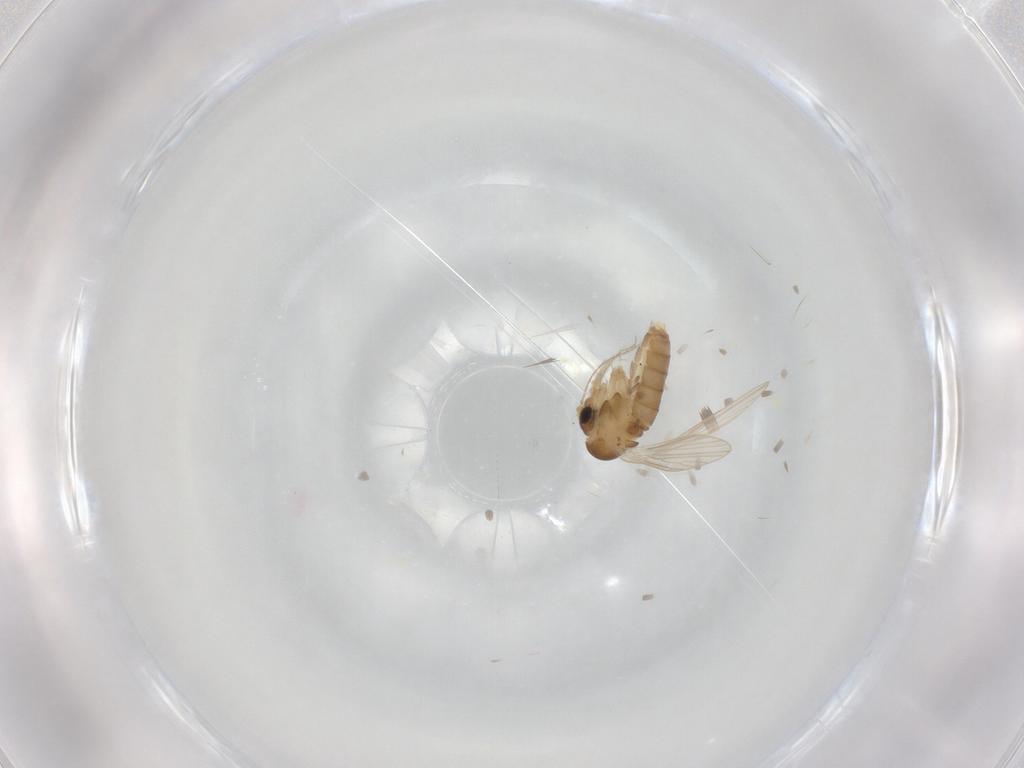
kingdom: Animalia
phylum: Arthropoda
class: Insecta
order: Diptera
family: Psychodidae
